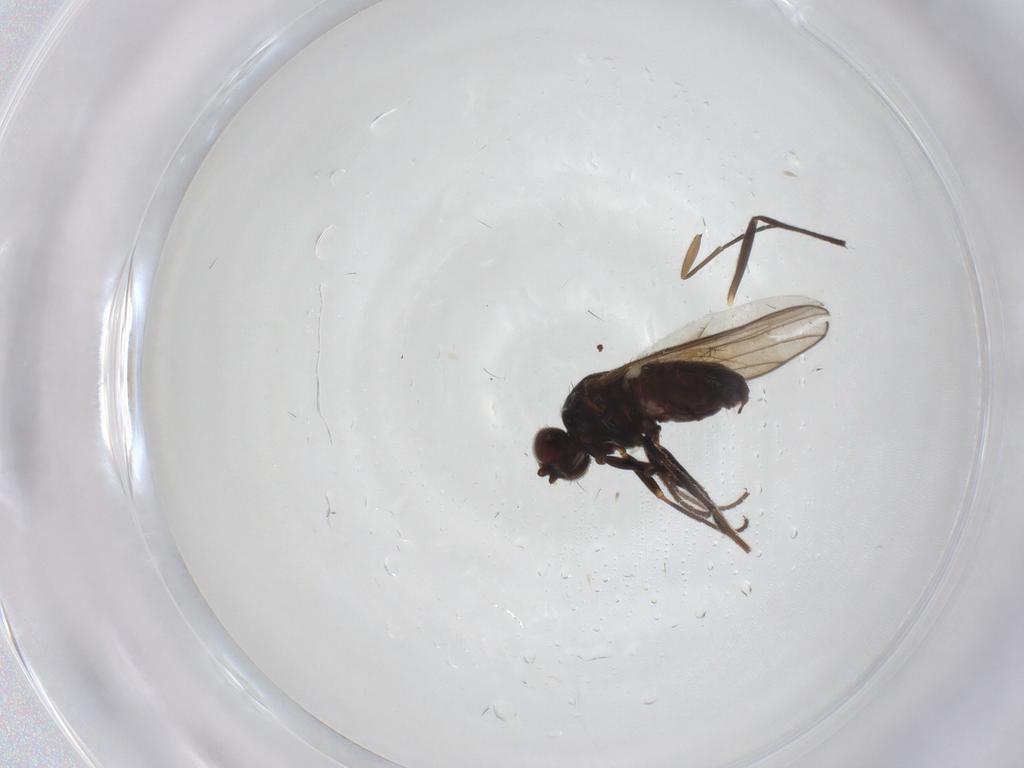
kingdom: Animalia
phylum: Arthropoda
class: Insecta
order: Diptera
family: Chloropidae
